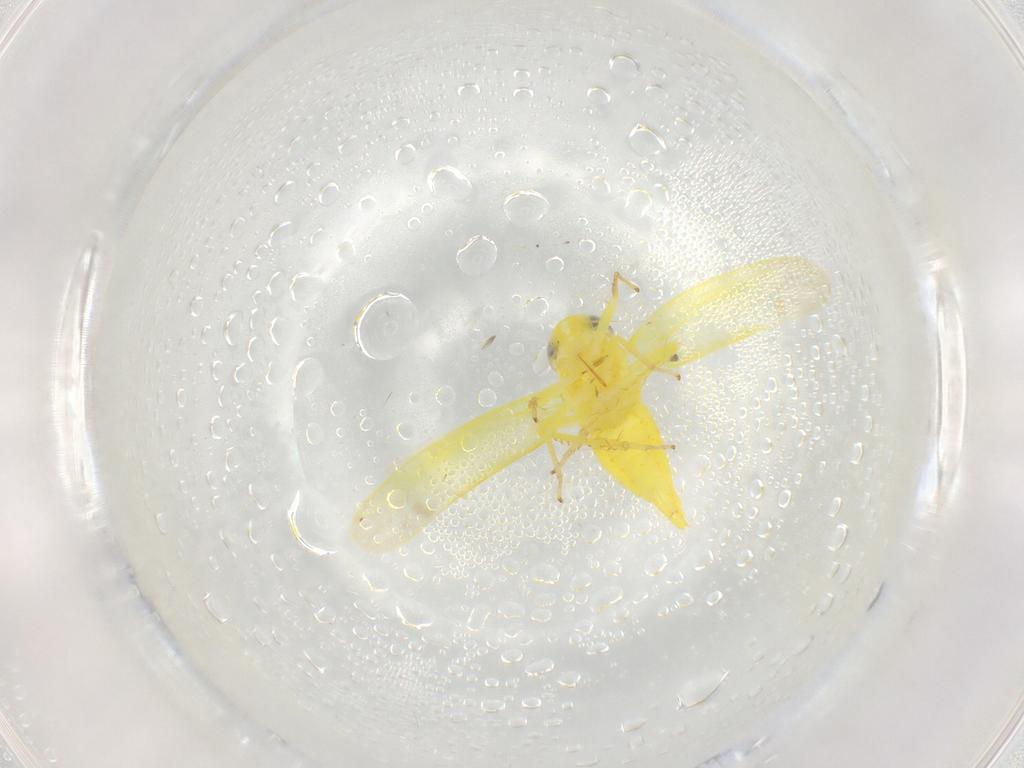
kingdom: Animalia
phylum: Arthropoda
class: Insecta
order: Hemiptera
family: Cicadellidae
